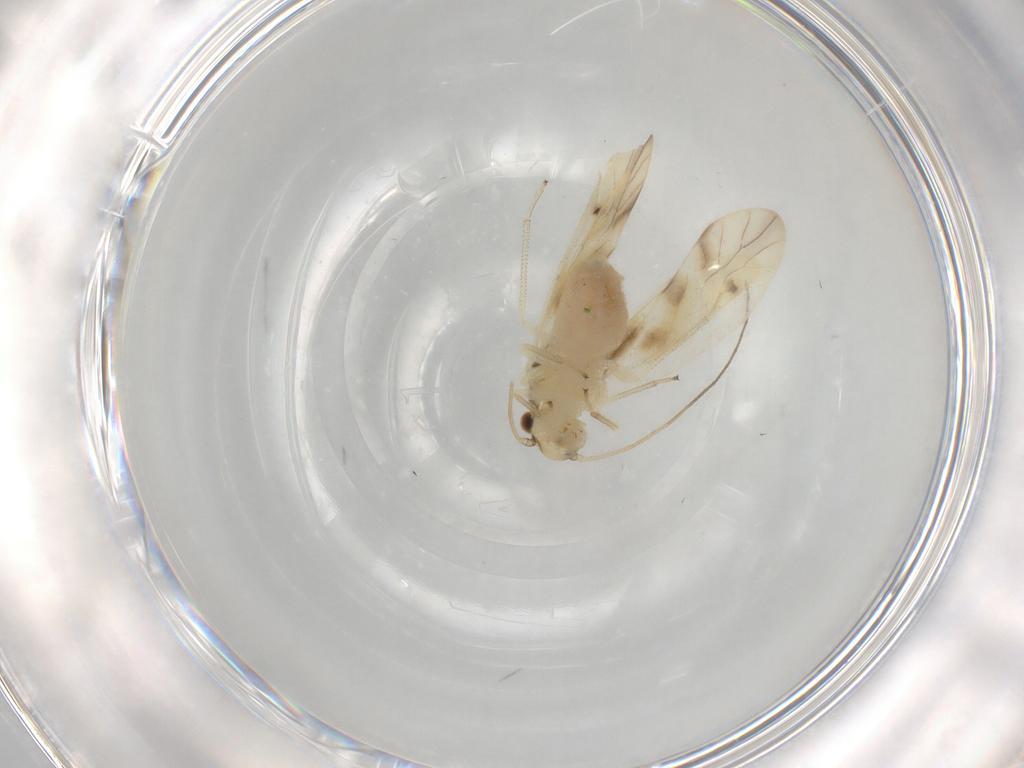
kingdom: Animalia
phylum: Arthropoda
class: Insecta
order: Psocodea
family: Caeciliusidae
